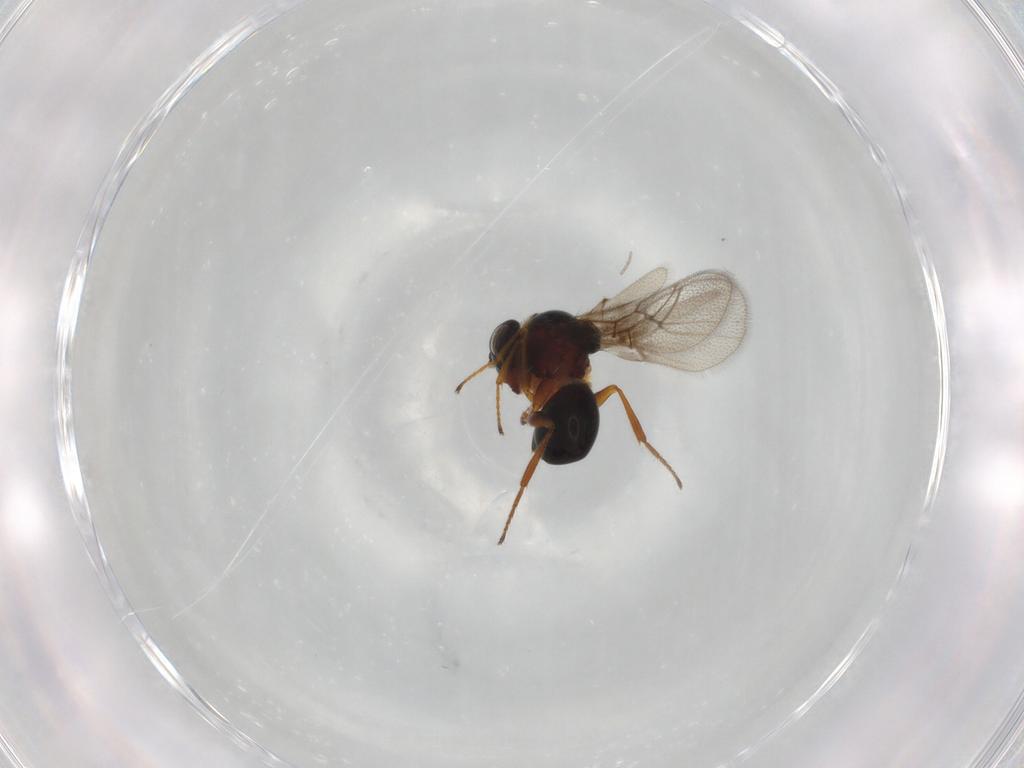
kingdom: Animalia
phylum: Arthropoda
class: Insecta
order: Hymenoptera
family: Figitidae
